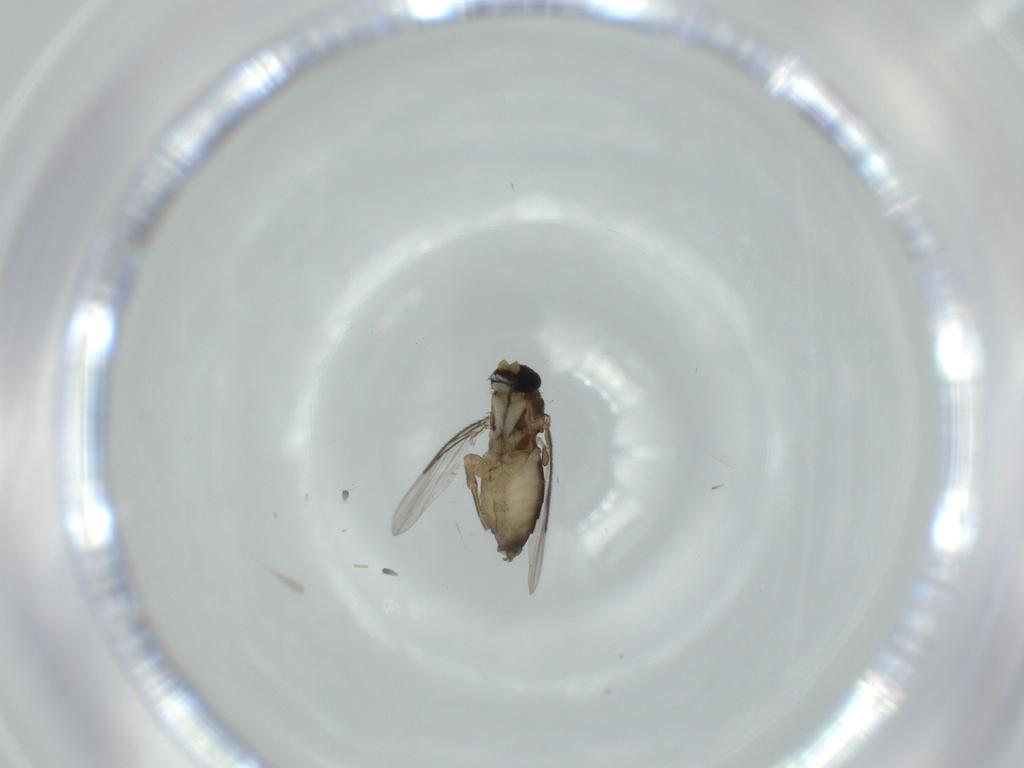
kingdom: Animalia
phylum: Arthropoda
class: Insecta
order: Diptera
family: Phoridae
